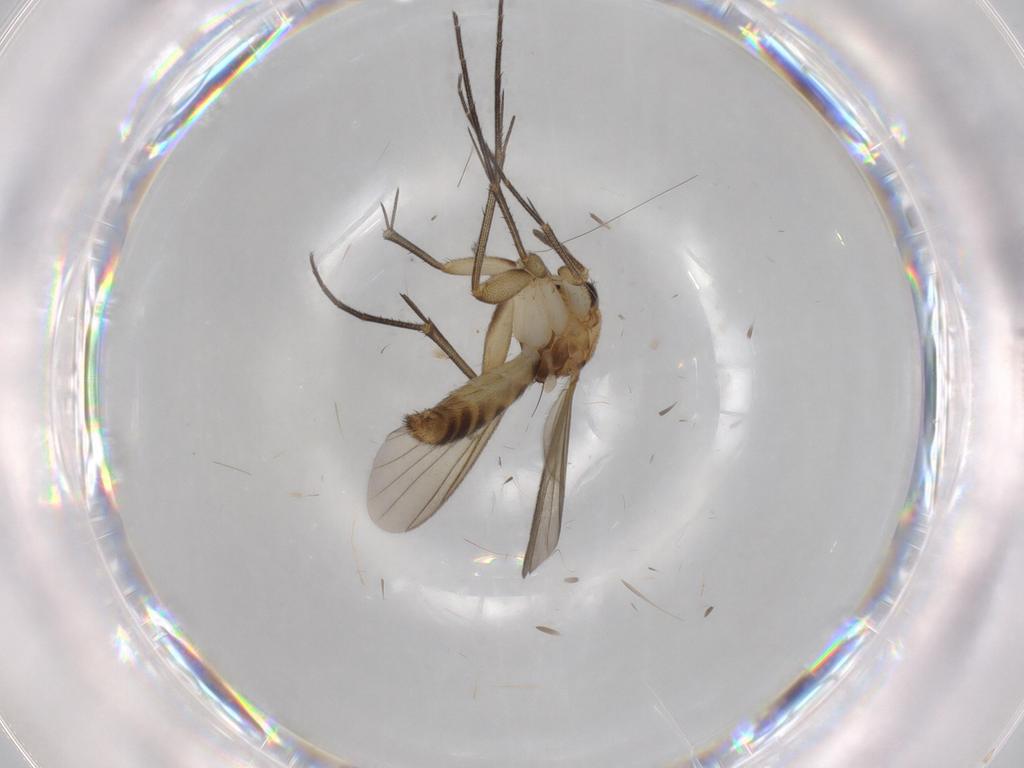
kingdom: Animalia
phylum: Arthropoda
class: Insecta
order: Diptera
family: Mycetophilidae
